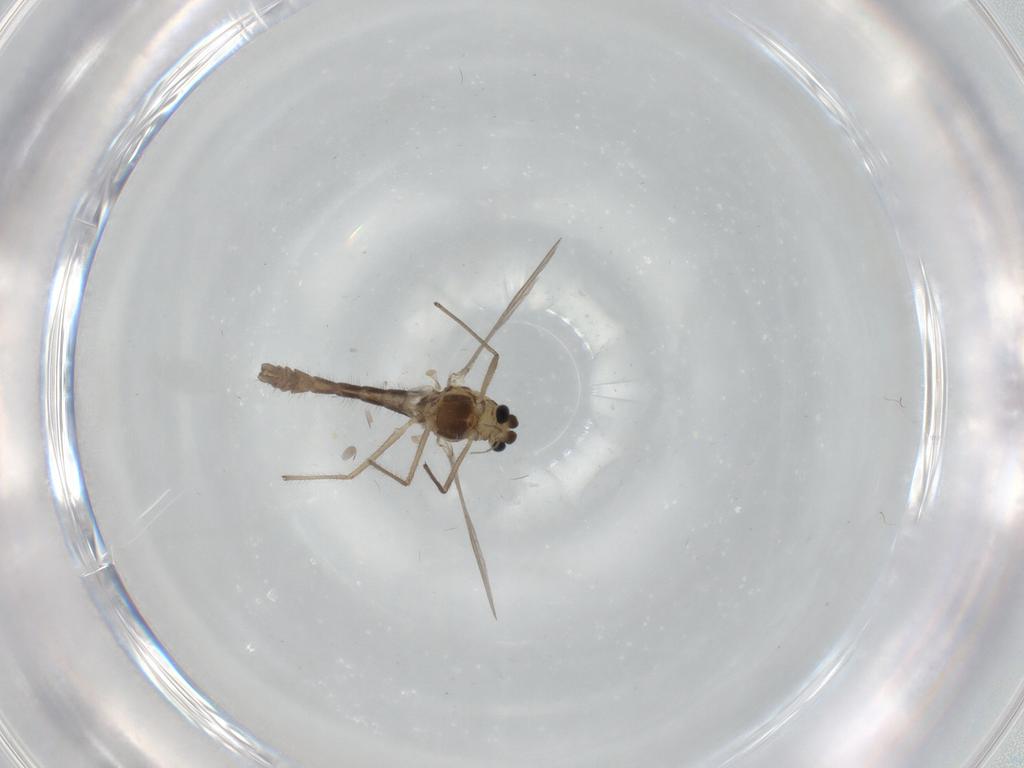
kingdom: Animalia
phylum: Arthropoda
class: Insecta
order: Diptera
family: Chironomidae
